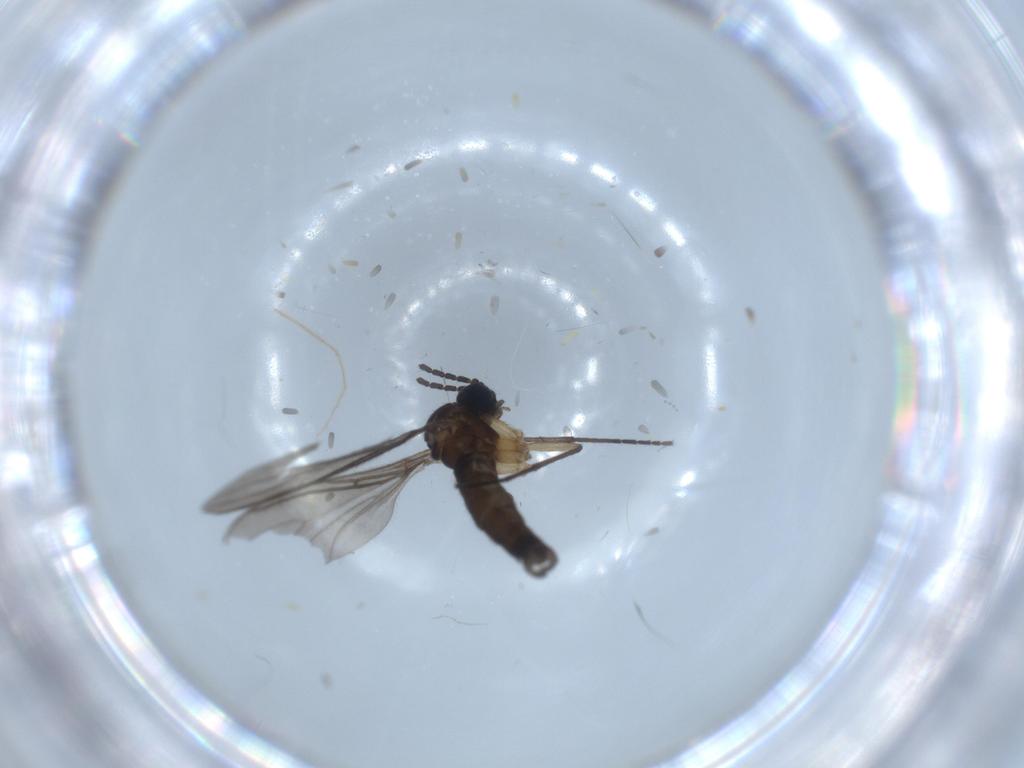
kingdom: Animalia
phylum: Arthropoda
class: Insecta
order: Diptera
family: Sciaridae
